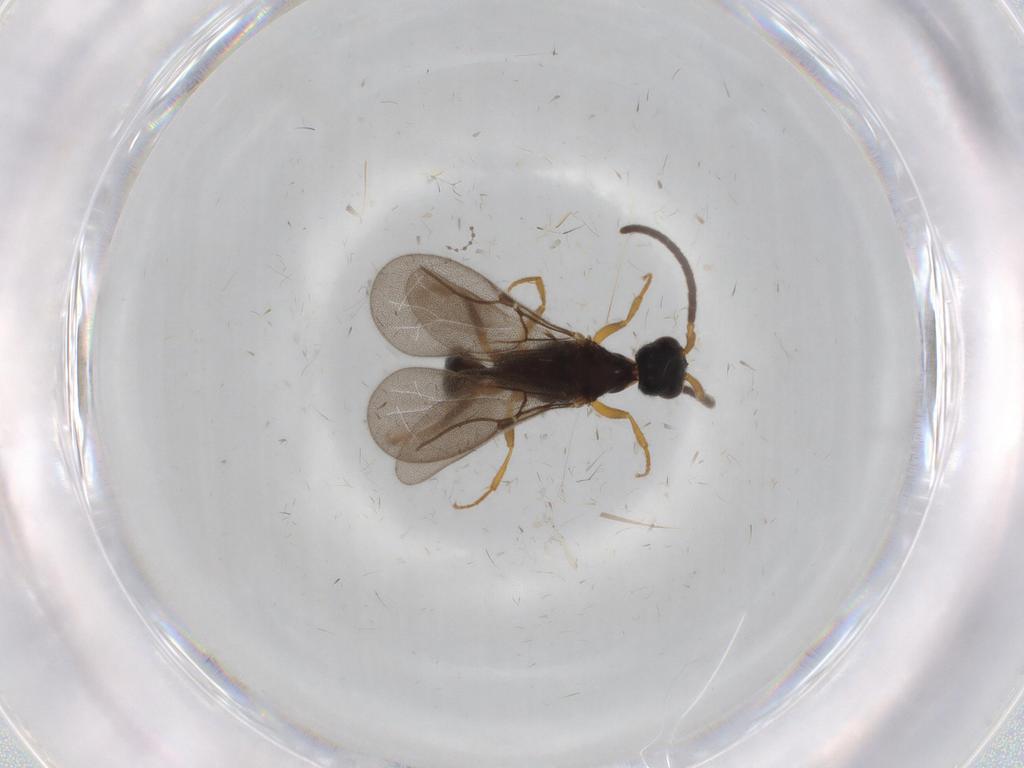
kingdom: Animalia
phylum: Arthropoda
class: Insecta
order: Hymenoptera
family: Bethylidae
